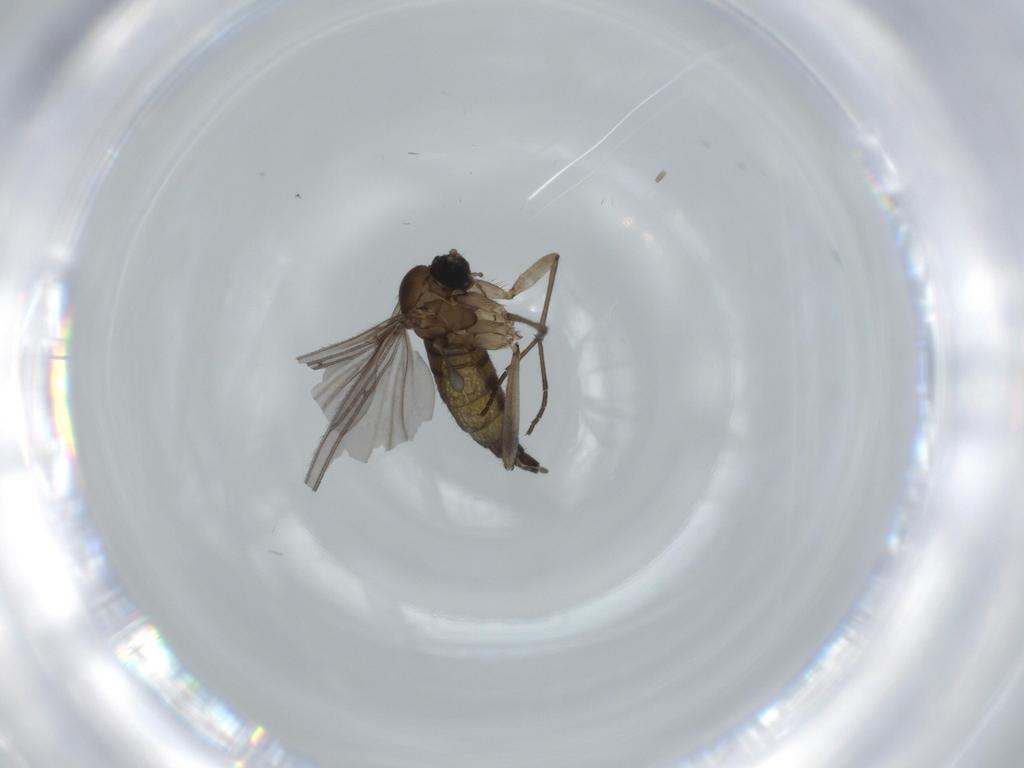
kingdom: Animalia
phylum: Arthropoda
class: Insecta
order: Diptera
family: Sciaridae
